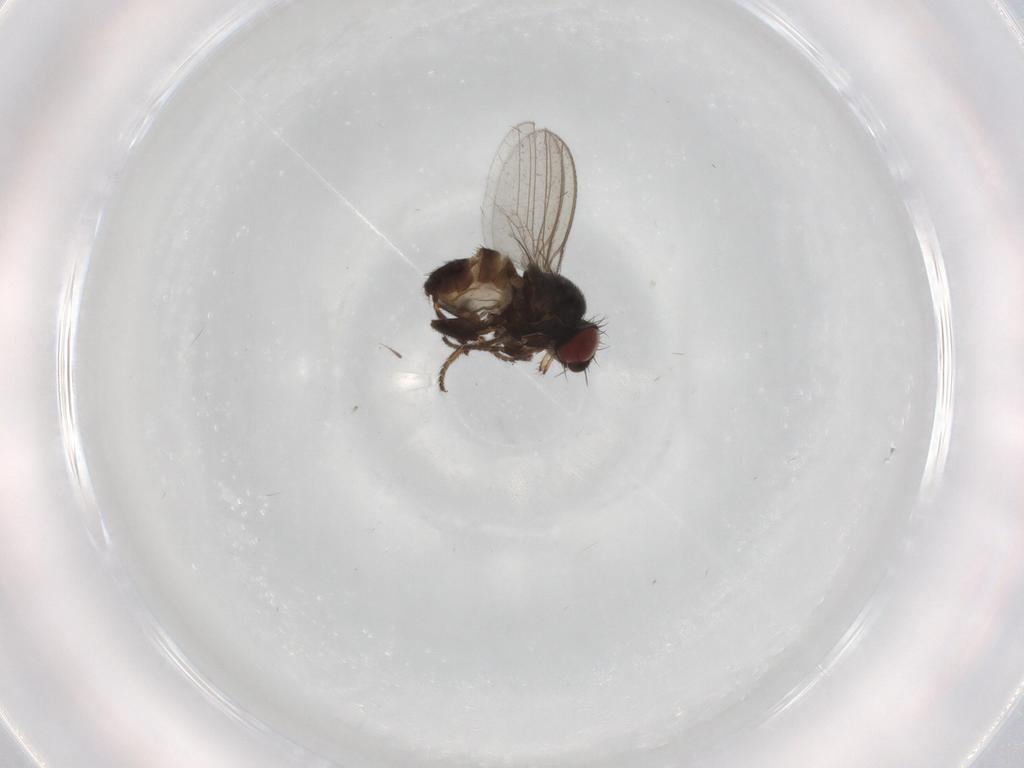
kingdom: Animalia
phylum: Arthropoda
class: Insecta
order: Diptera
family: Milichiidae
